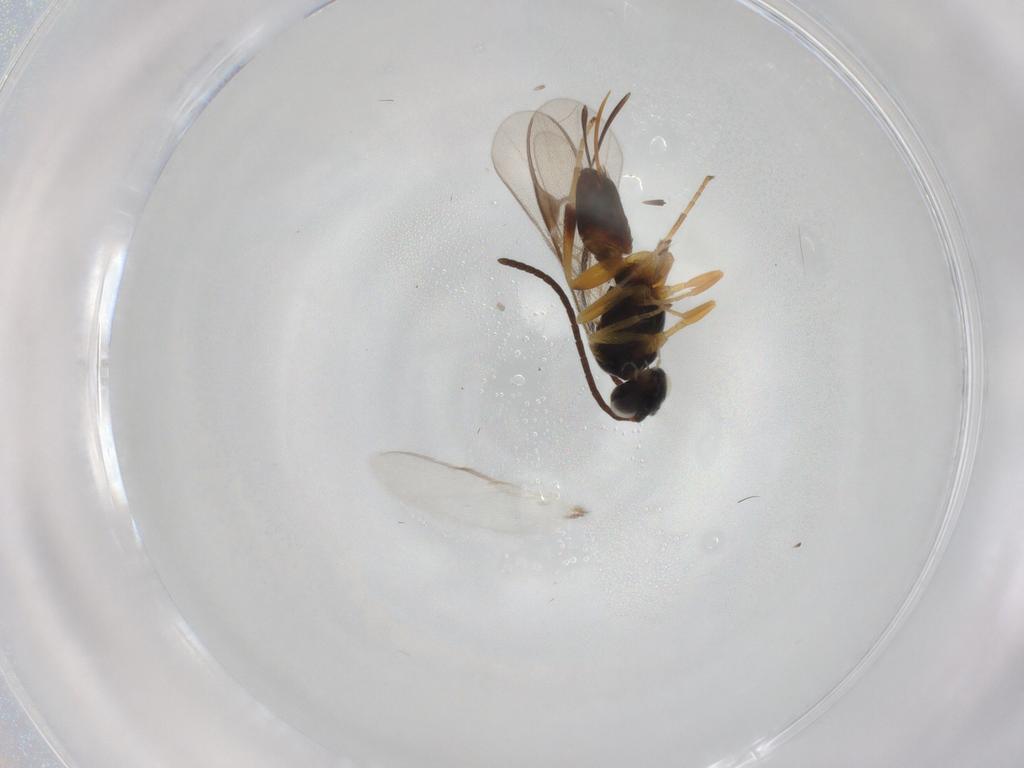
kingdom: Animalia
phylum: Arthropoda
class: Insecta
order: Hymenoptera
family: Braconidae
